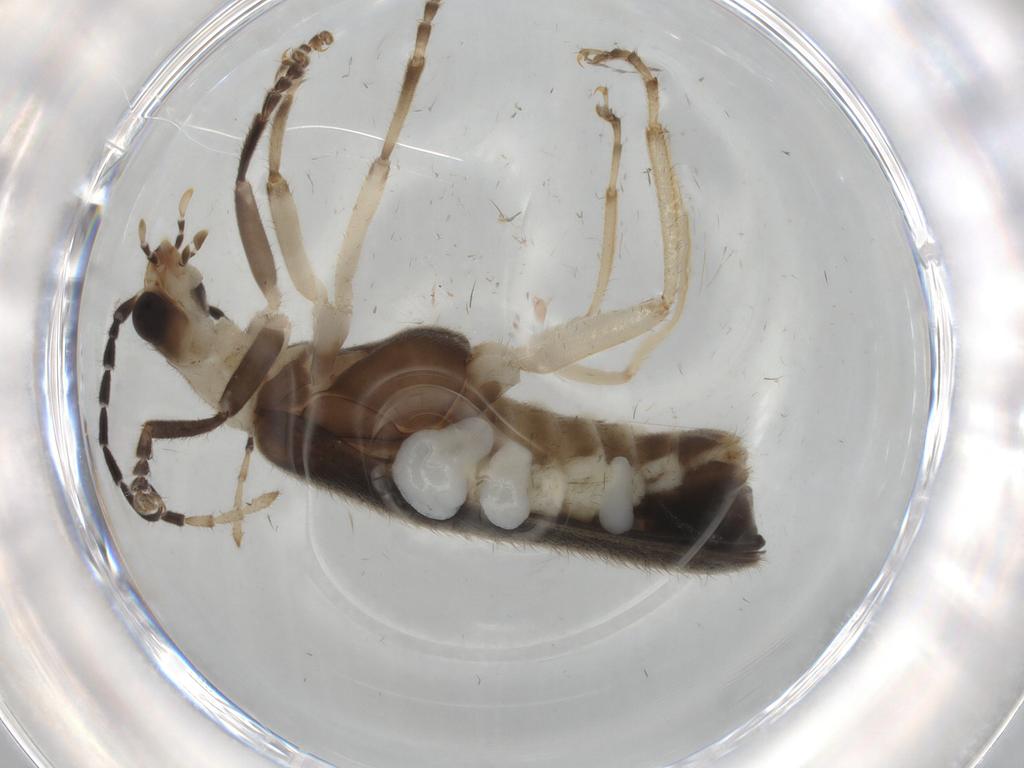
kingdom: Animalia
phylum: Arthropoda
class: Insecta
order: Coleoptera
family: Cantharidae
